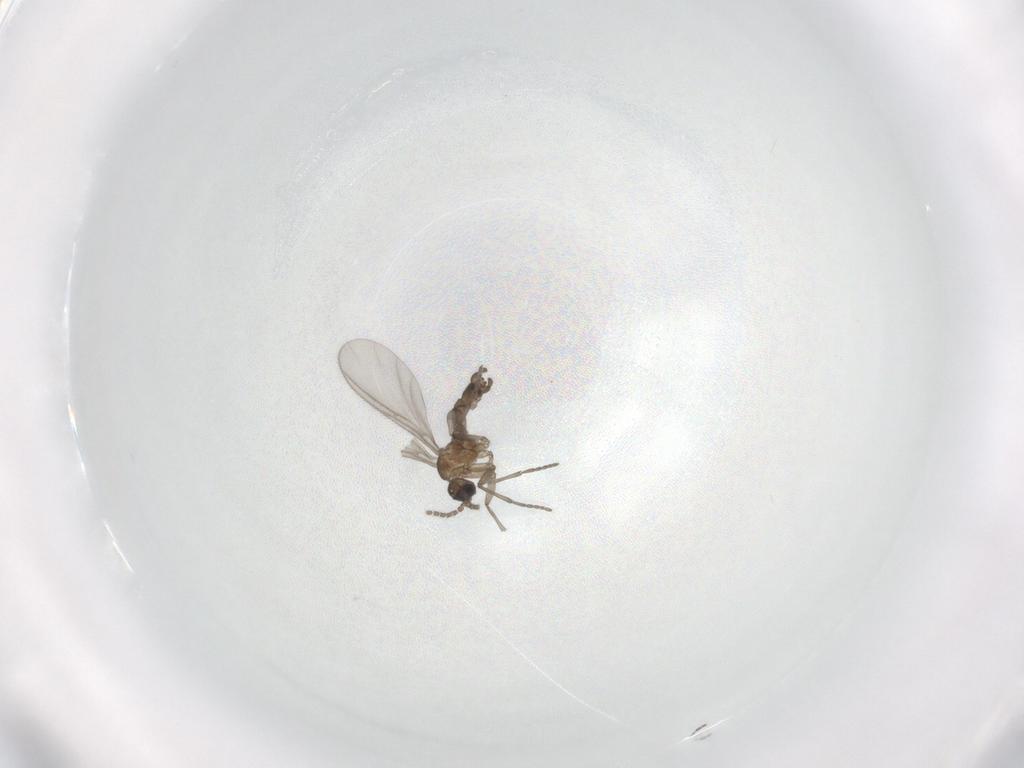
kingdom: Animalia
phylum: Arthropoda
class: Insecta
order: Diptera
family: Sciaridae
